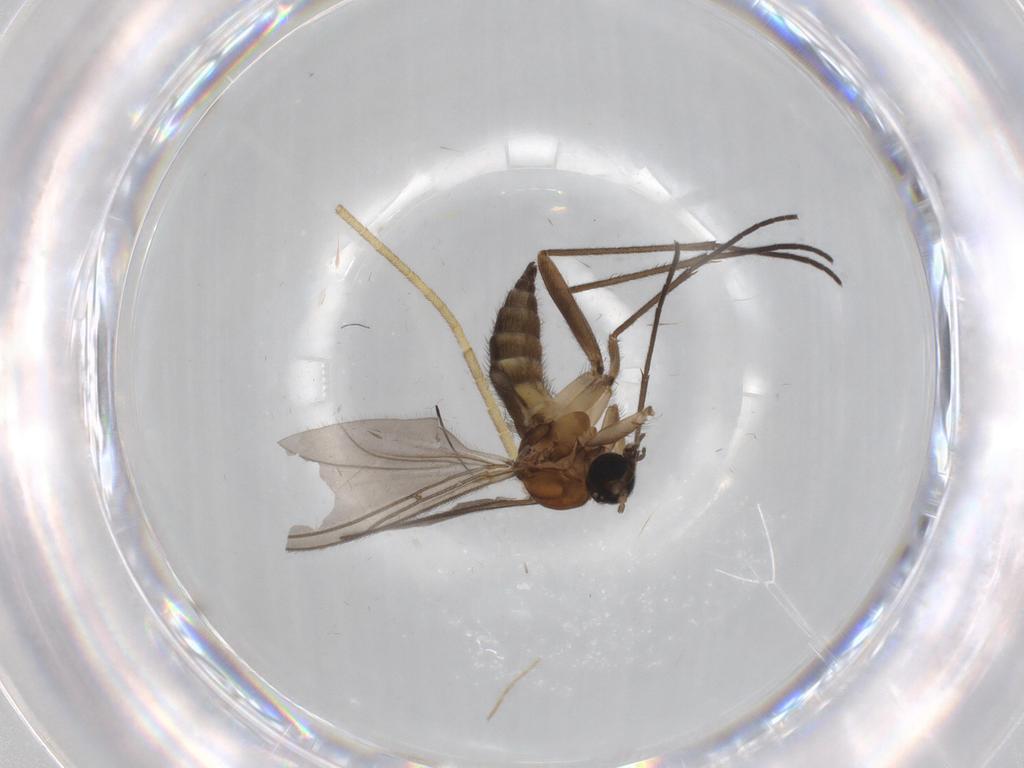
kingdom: Animalia
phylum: Arthropoda
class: Insecta
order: Diptera
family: Sciaridae
